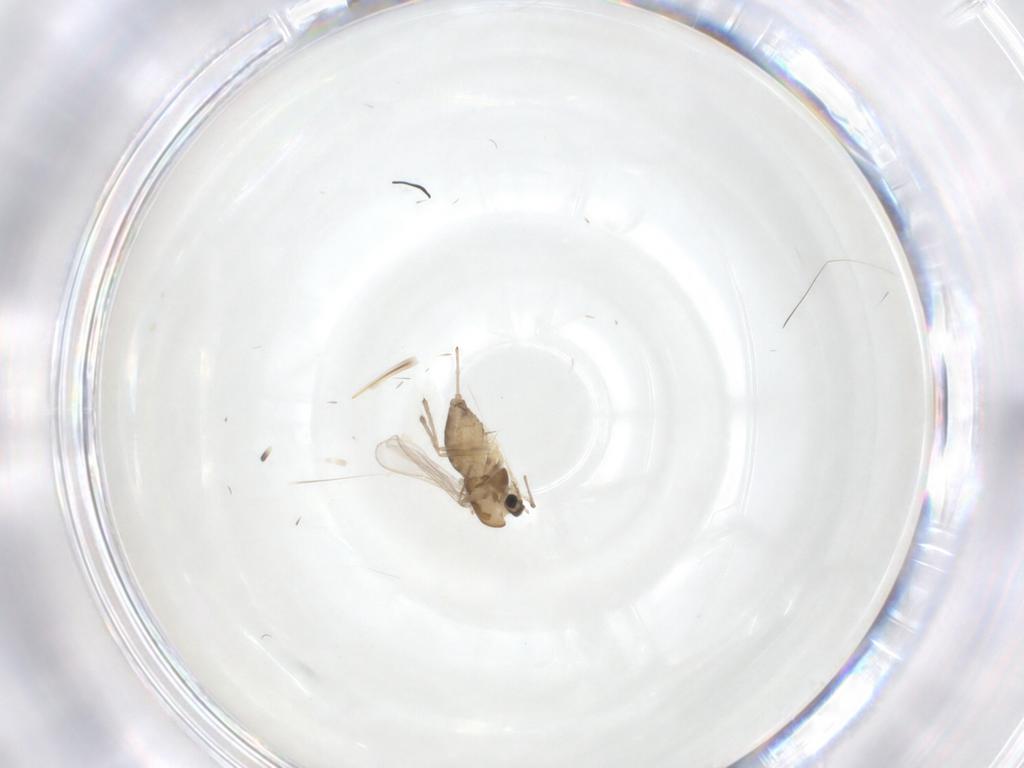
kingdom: Animalia
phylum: Arthropoda
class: Insecta
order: Diptera
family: Chironomidae
